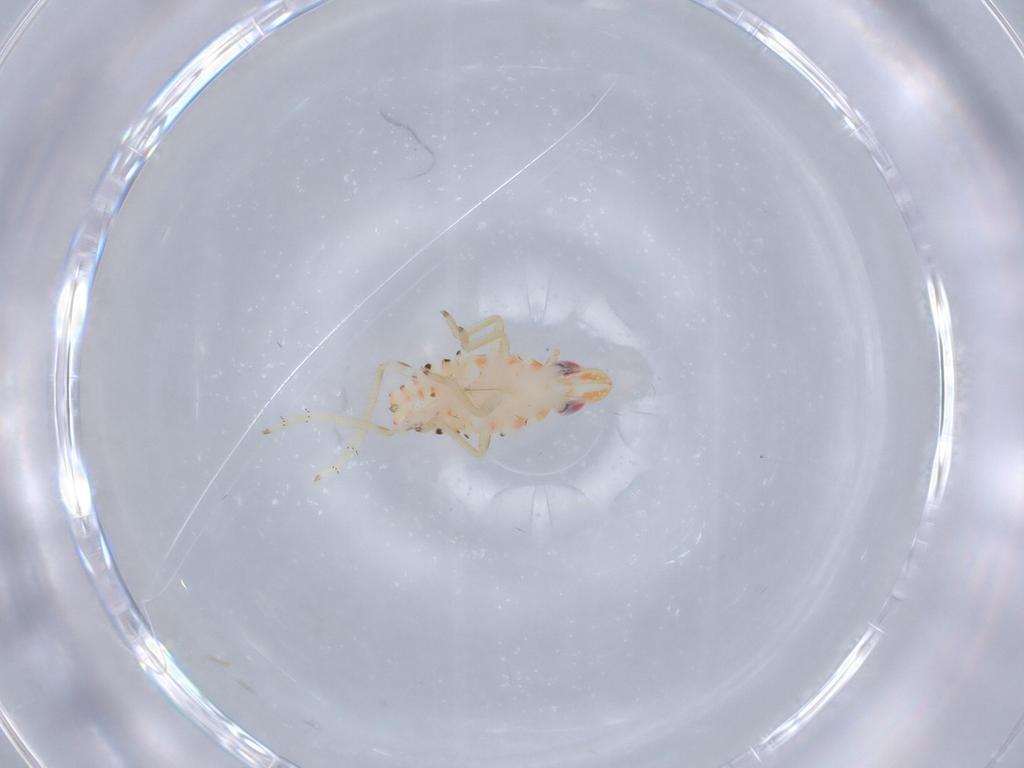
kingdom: Animalia
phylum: Arthropoda
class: Insecta
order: Hemiptera
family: Tropiduchidae
